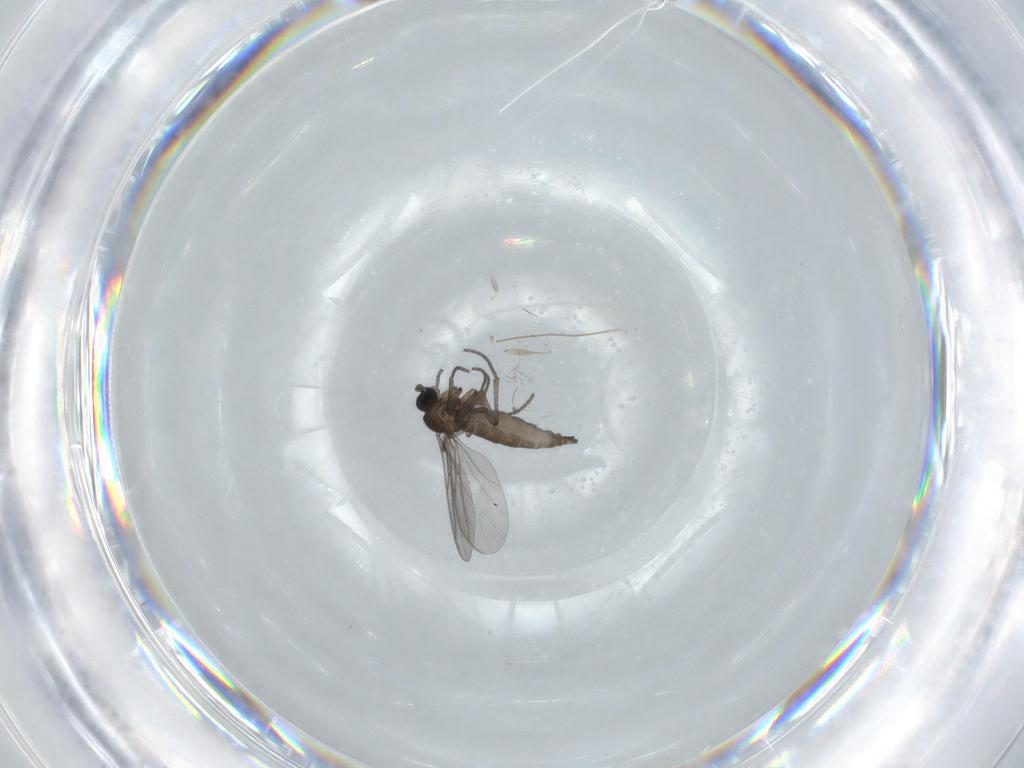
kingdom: Animalia
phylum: Arthropoda
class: Insecta
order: Diptera
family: Chironomidae
